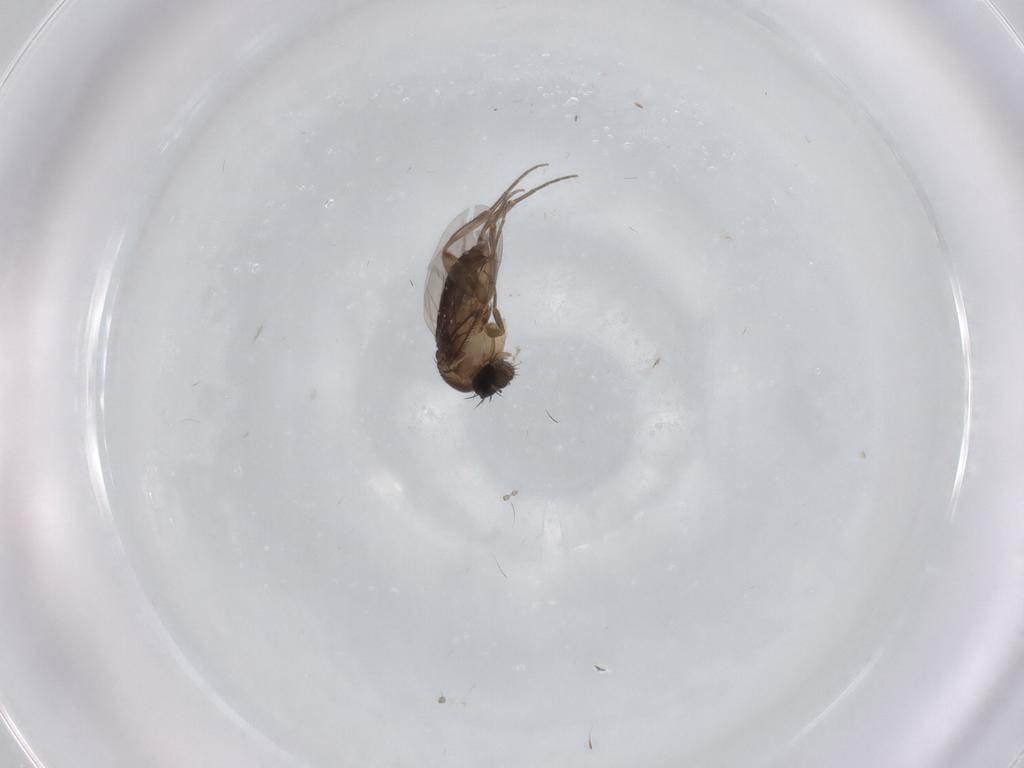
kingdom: Animalia
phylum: Arthropoda
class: Insecta
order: Diptera
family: Phoridae
